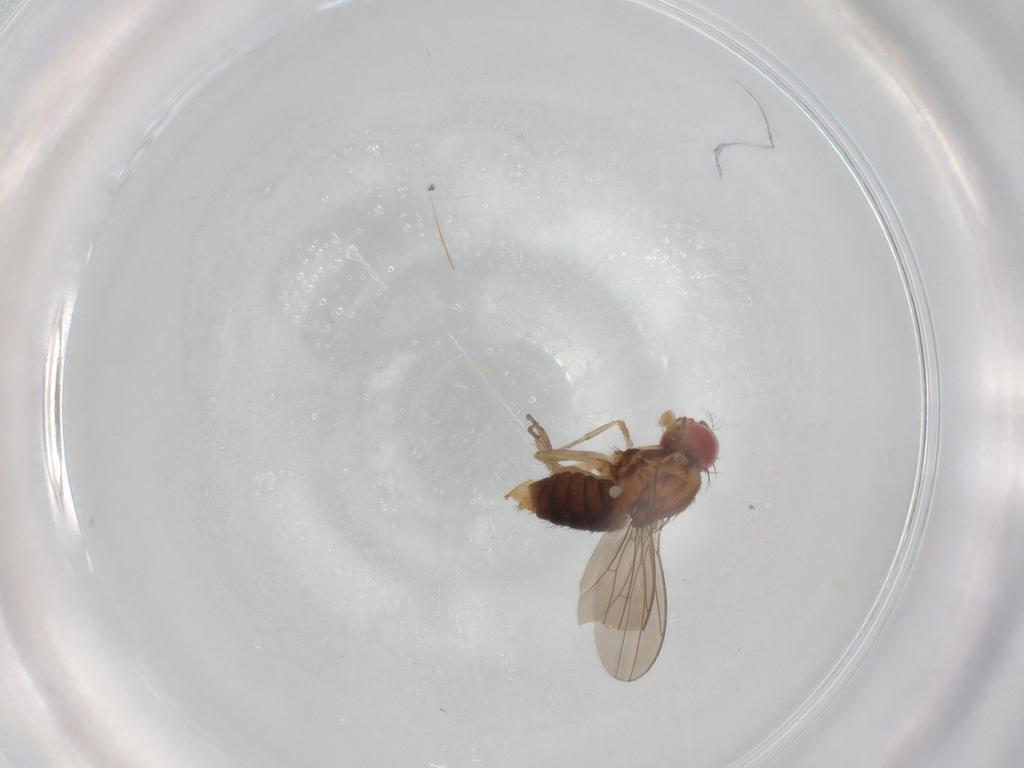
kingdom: Animalia
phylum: Arthropoda
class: Insecta
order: Diptera
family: Drosophilidae
